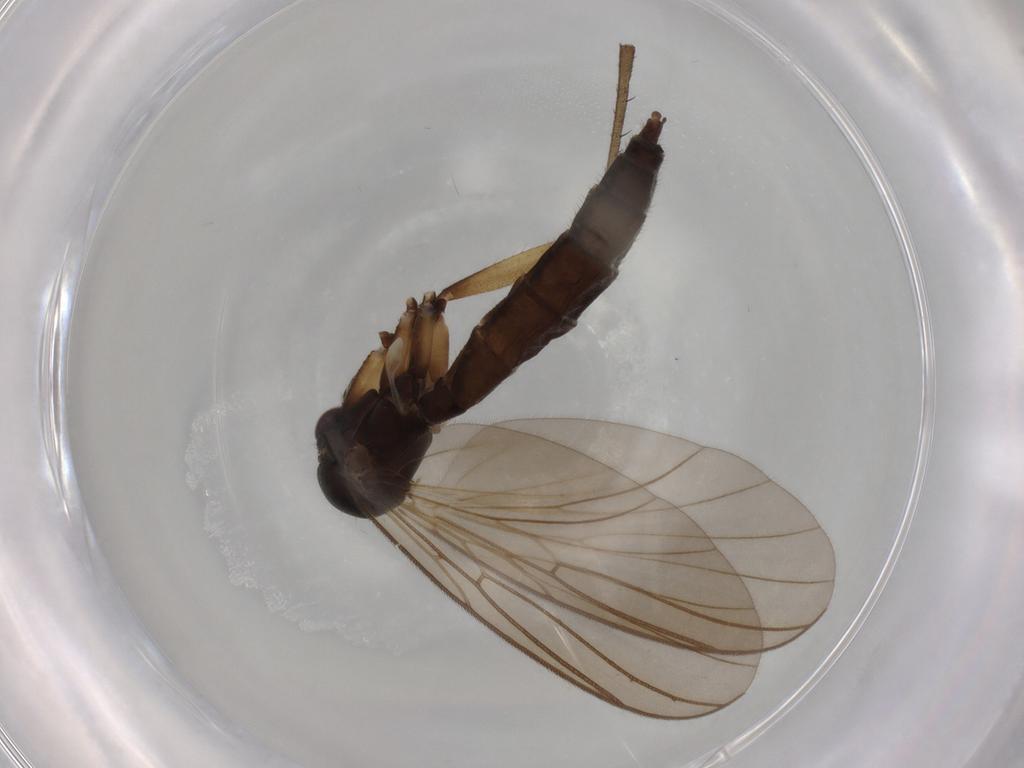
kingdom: Animalia
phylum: Arthropoda
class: Insecta
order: Diptera
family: Mycetophilidae
